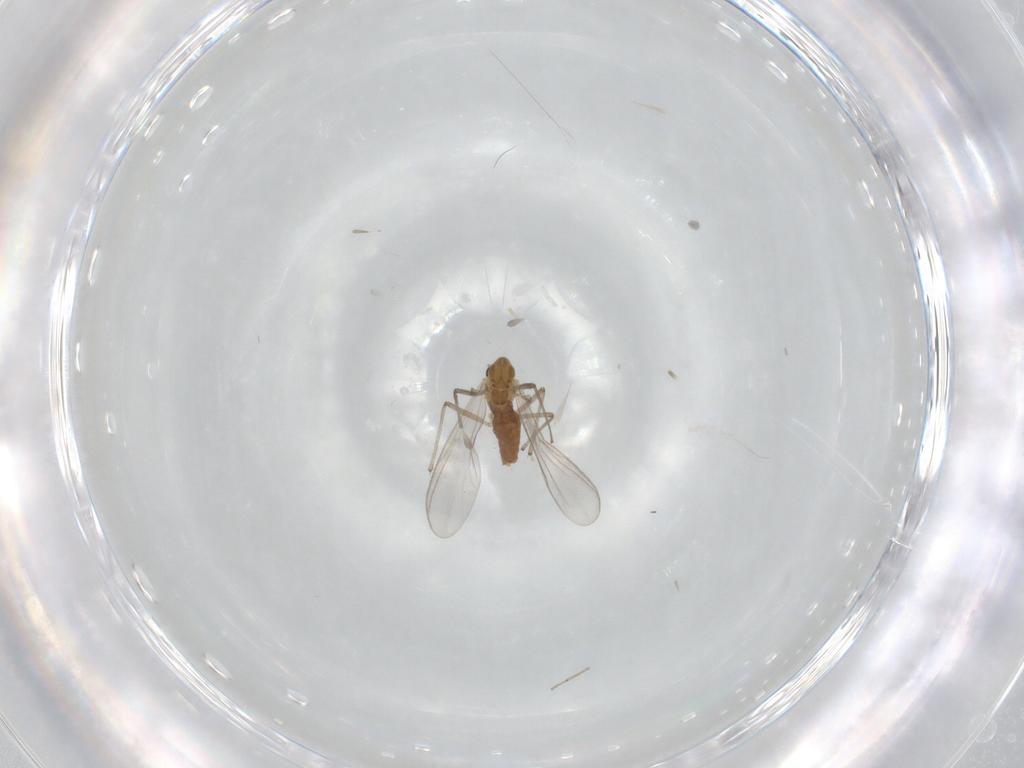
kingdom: Animalia
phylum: Arthropoda
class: Insecta
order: Diptera
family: Chironomidae
